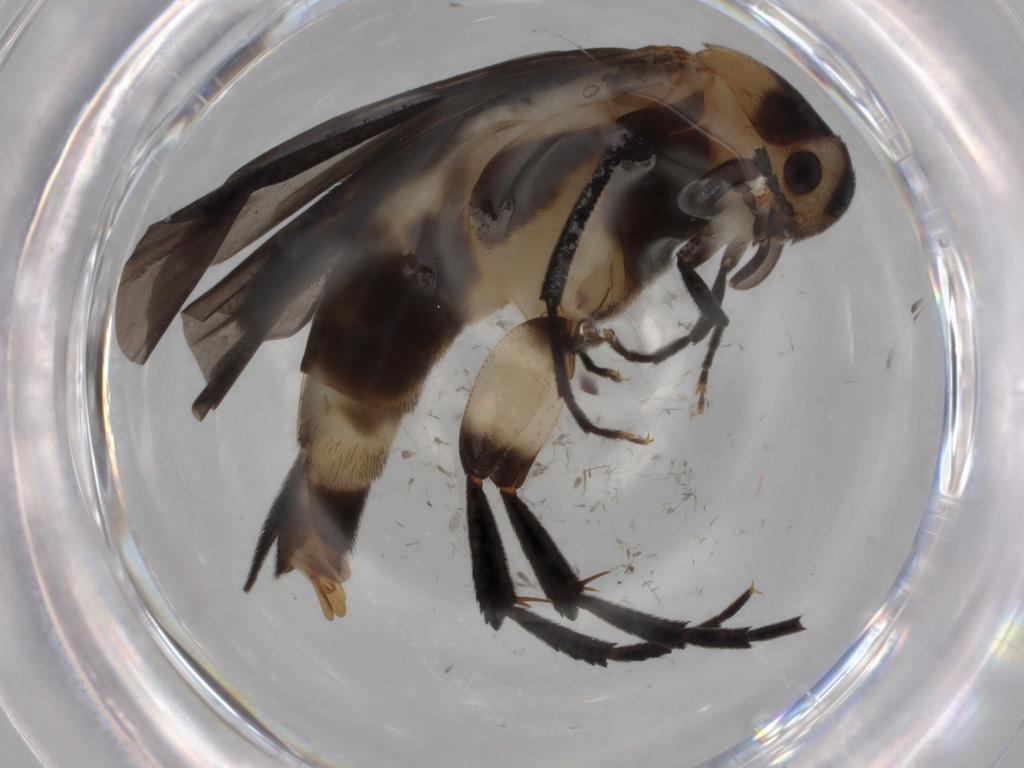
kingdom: Animalia
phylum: Arthropoda
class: Insecta
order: Coleoptera
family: Mordellidae
